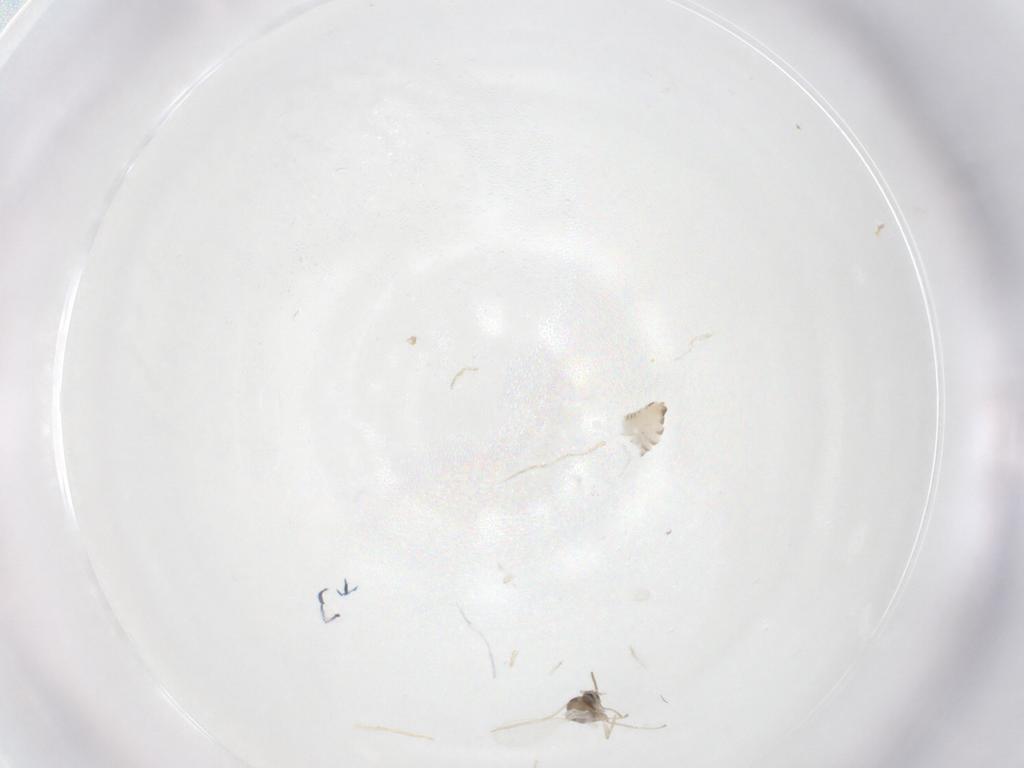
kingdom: Animalia
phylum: Arthropoda
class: Insecta
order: Diptera
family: Cecidomyiidae
